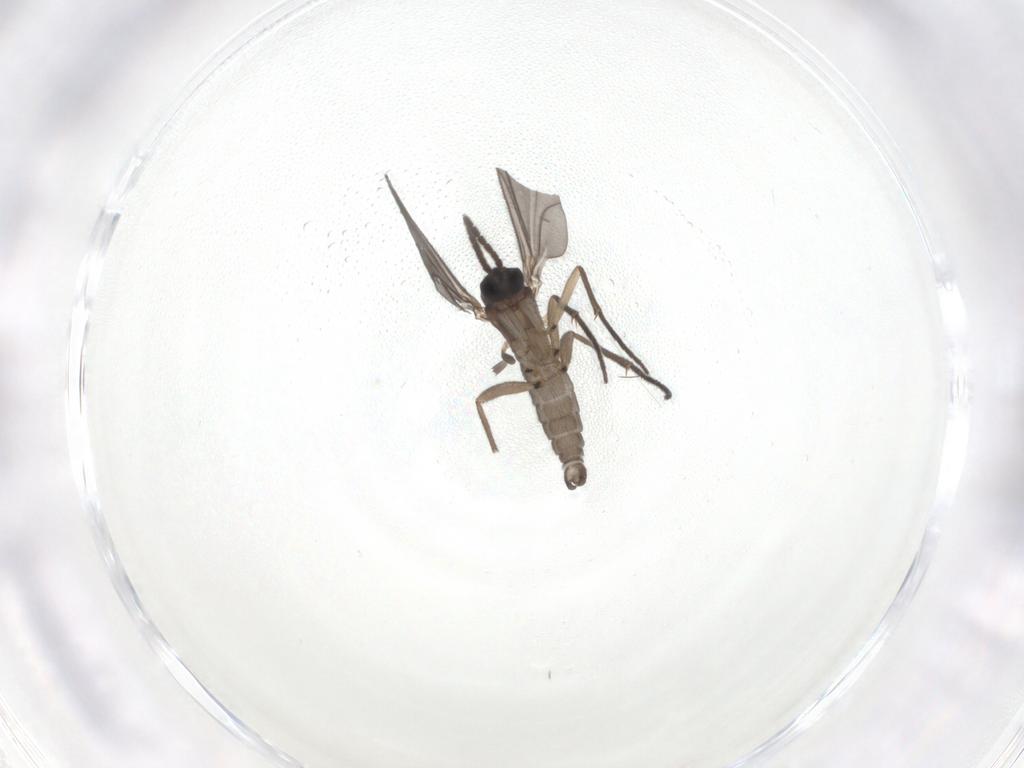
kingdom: Animalia
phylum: Arthropoda
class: Insecta
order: Diptera
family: Sciaridae
